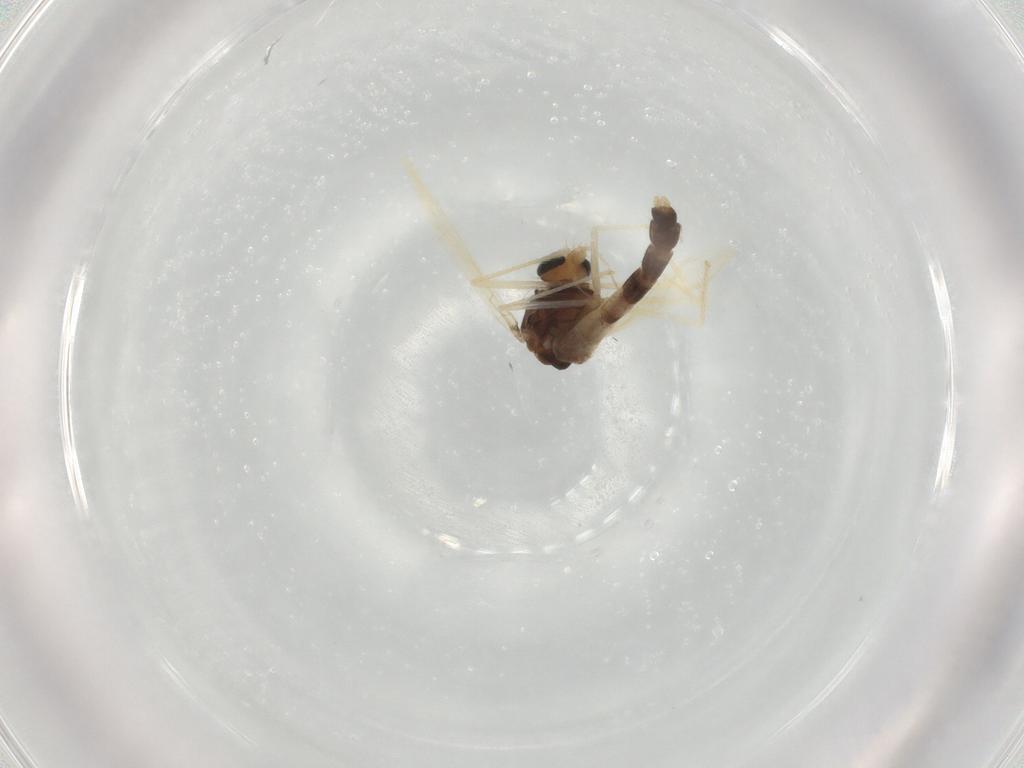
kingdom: Animalia
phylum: Arthropoda
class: Insecta
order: Diptera
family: Chironomidae
